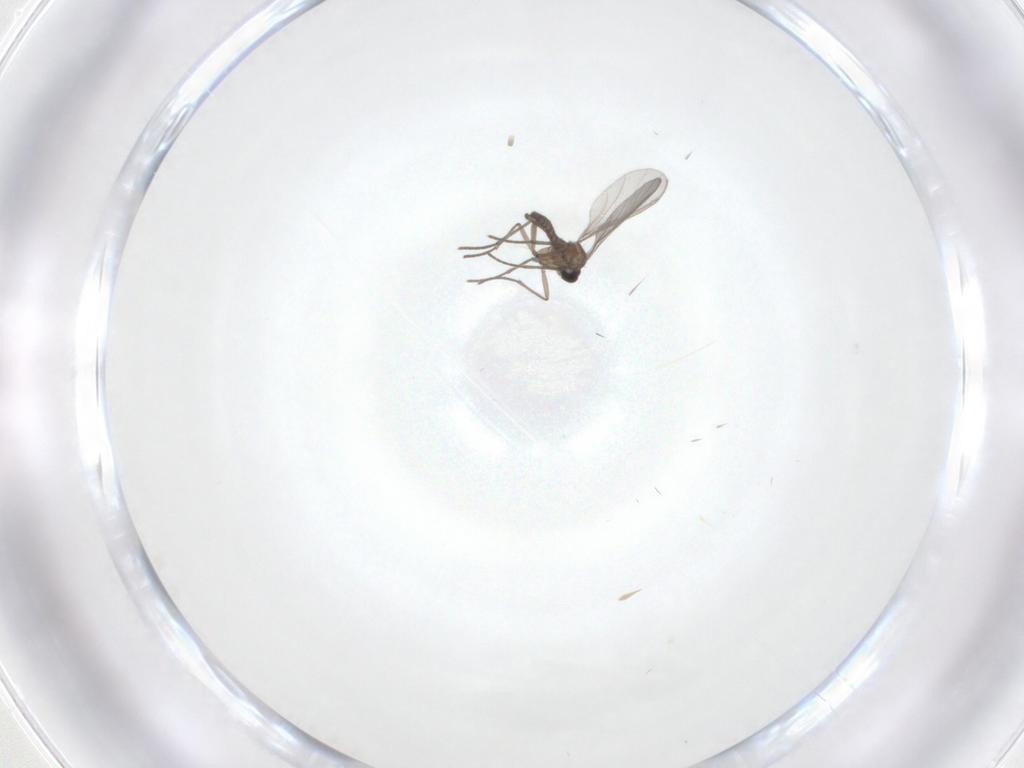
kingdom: Animalia
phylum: Arthropoda
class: Insecta
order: Diptera
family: Sciaridae
